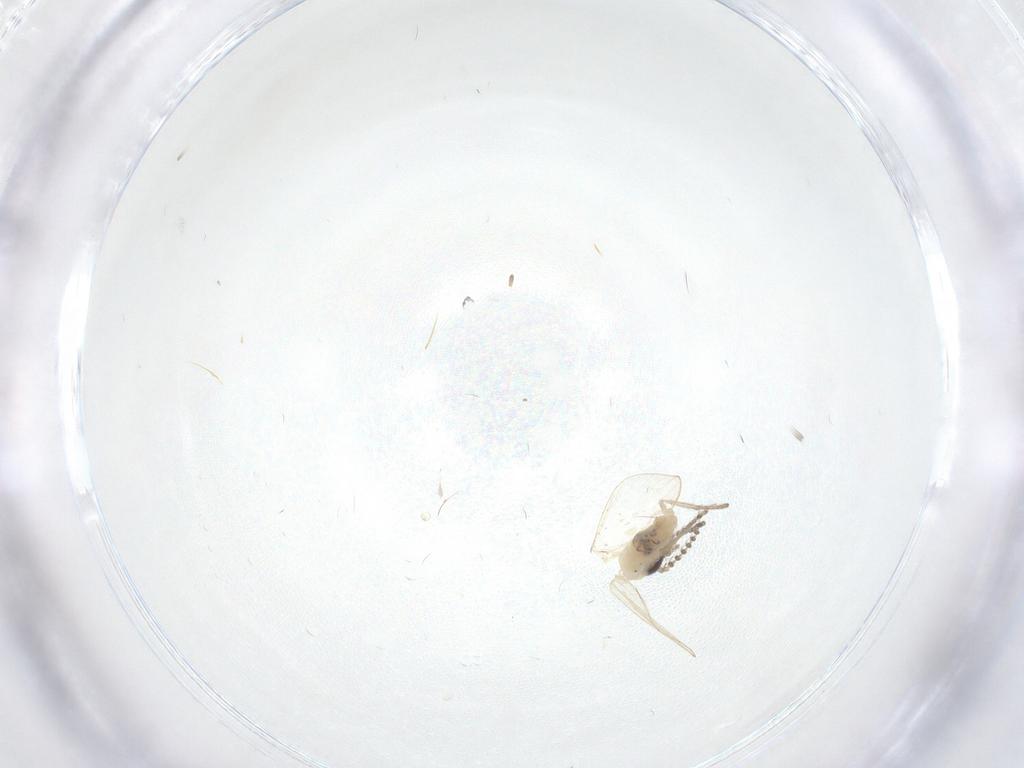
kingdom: Animalia
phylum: Arthropoda
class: Insecta
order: Diptera
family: Psychodidae
